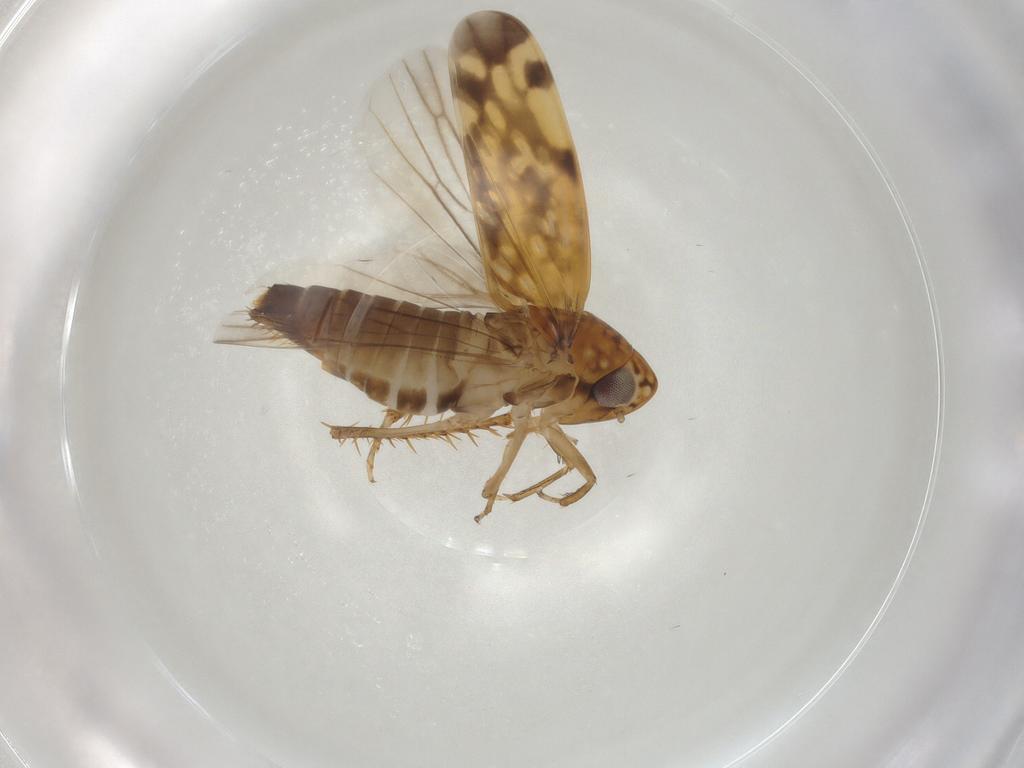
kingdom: Animalia
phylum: Arthropoda
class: Insecta
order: Hemiptera
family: Cicadellidae
